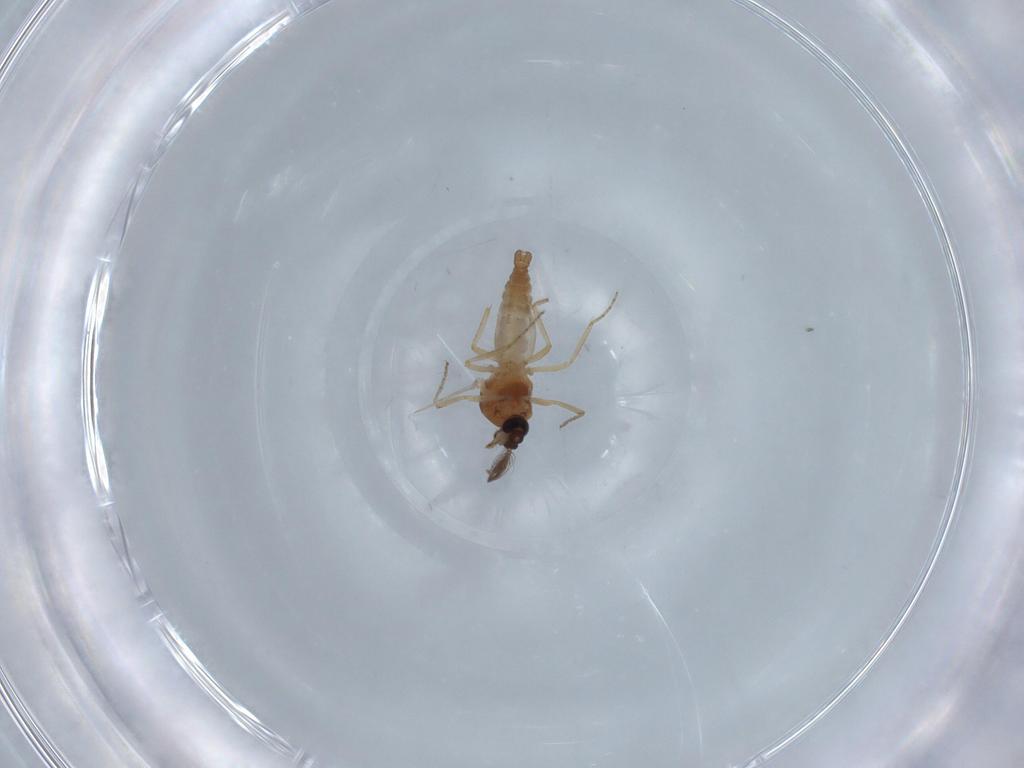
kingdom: Animalia
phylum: Arthropoda
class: Insecta
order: Diptera
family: Ceratopogonidae
